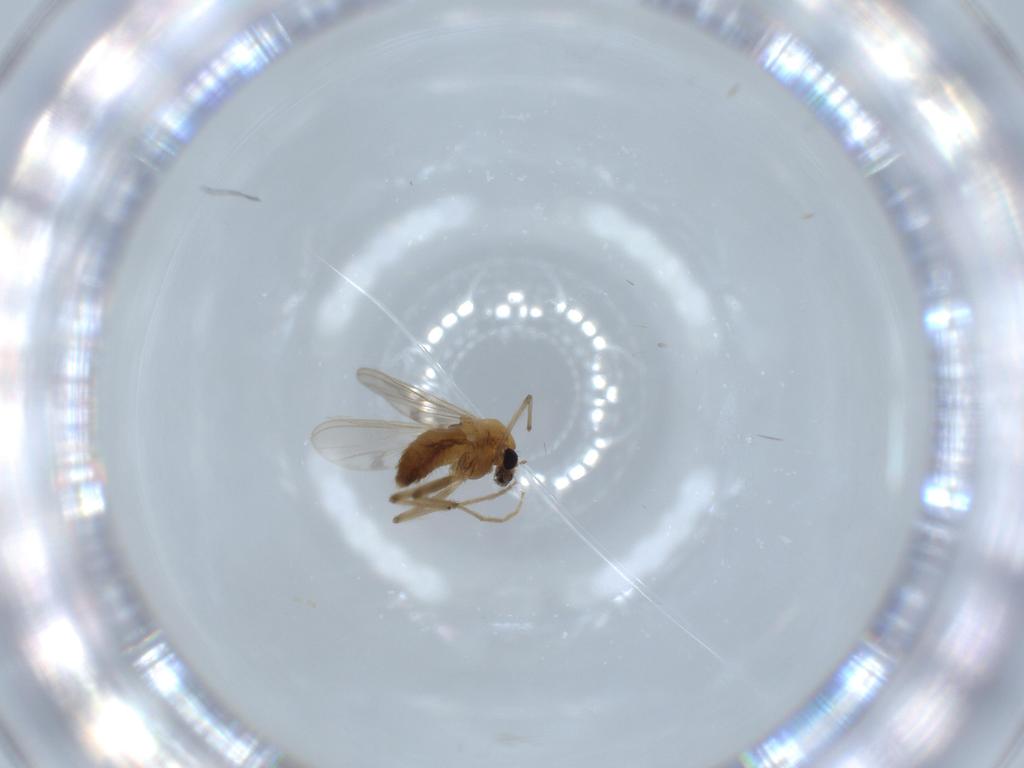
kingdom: Animalia
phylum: Arthropoda
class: Insecta
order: Diptera
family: Chironomidae
